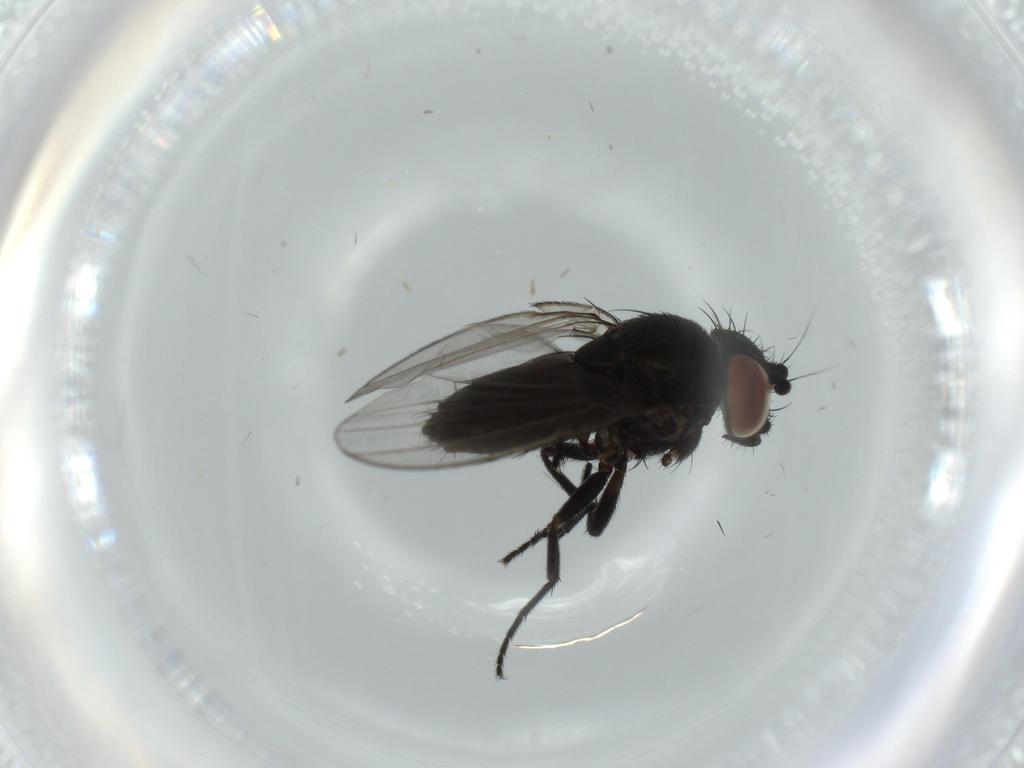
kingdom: Animalia
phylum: Arthropoda
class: Insecta
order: Diptera
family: Milichiidae
